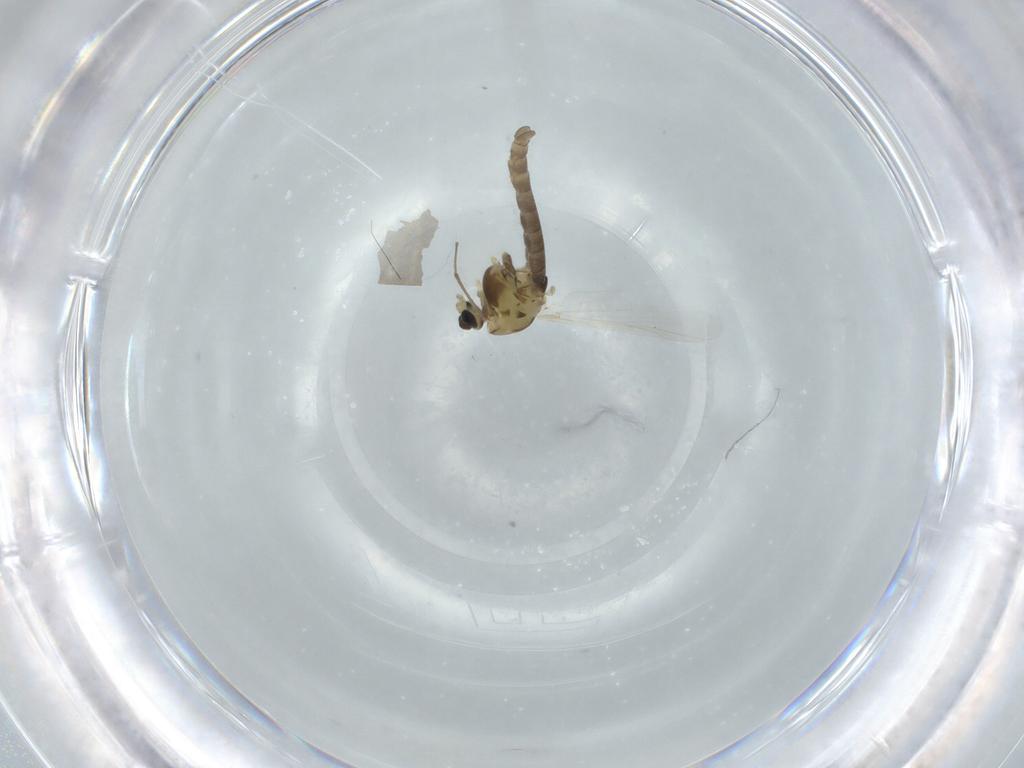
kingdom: Animalia
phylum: Arthropoda
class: Insecta
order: Diptera
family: Chironomidae
